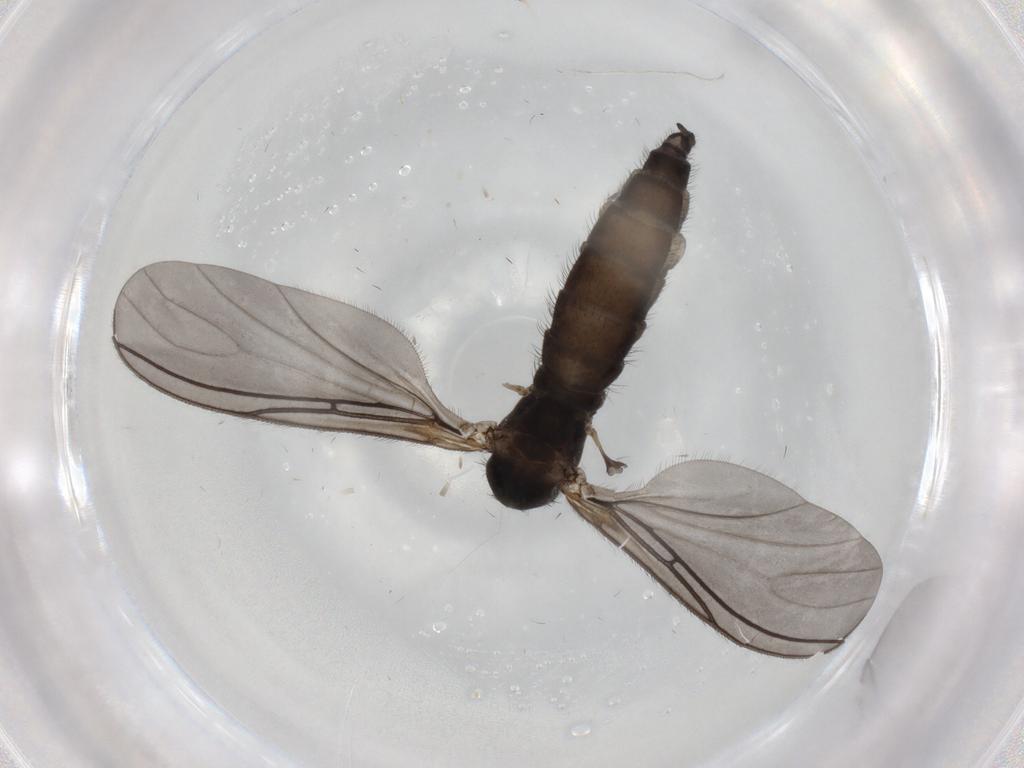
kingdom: Animalia
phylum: Arthropoda
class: Insecta
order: Diptera
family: Sciaridae
